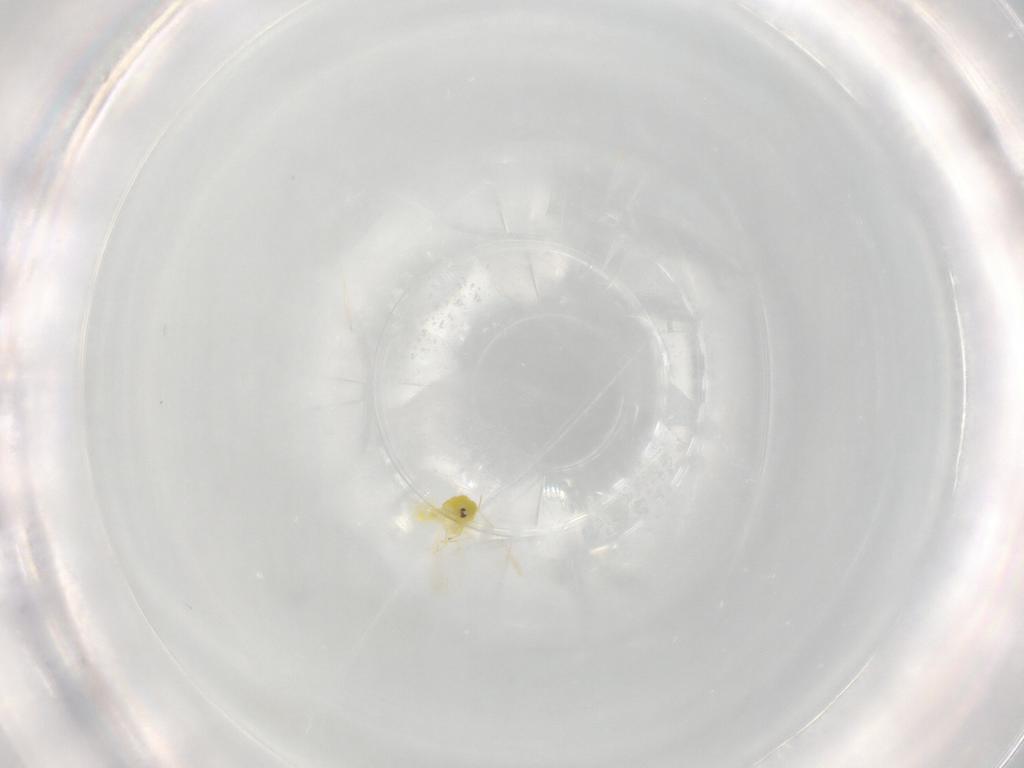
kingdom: Animalia
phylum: Arthropoda
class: Insecta
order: Hemiptera
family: Aleyrodidae
